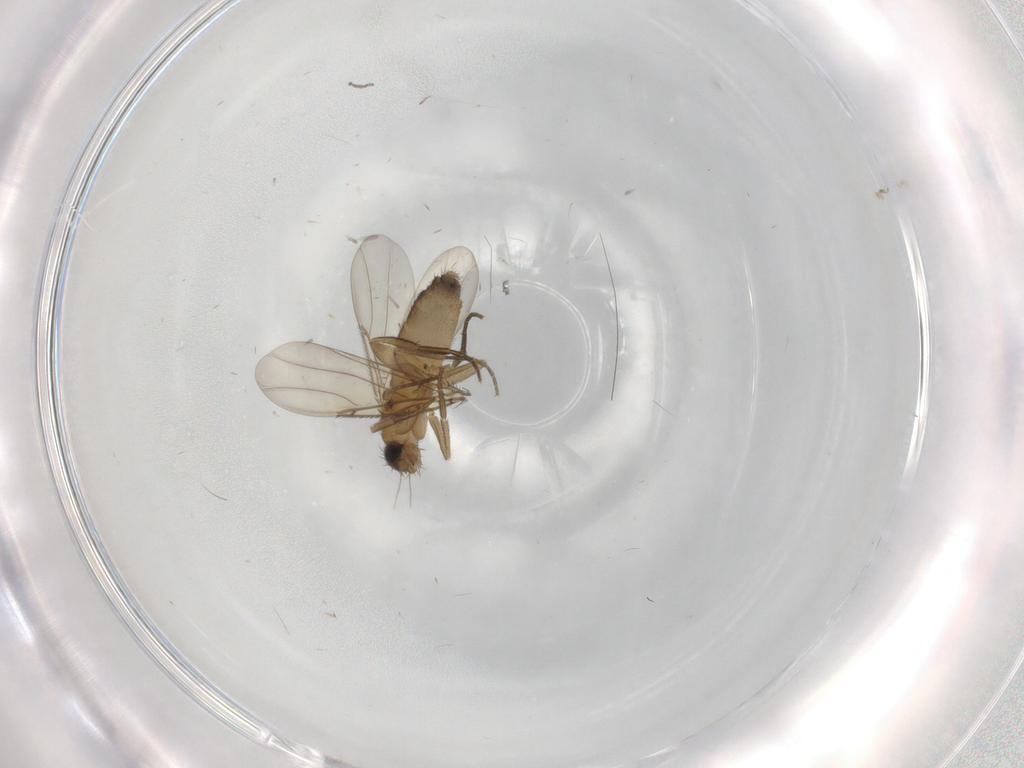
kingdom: Animalia
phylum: Arthropoda
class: Insecta
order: Diptera
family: Phoridae
